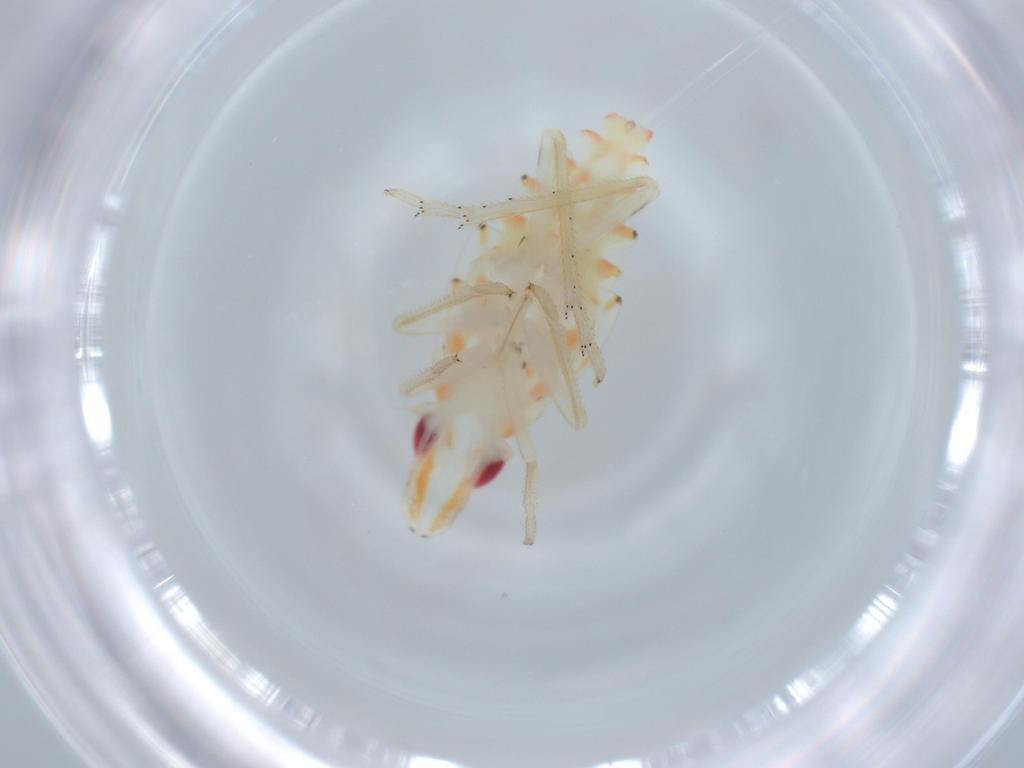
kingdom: Animalia
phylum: Arthropoda
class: Insecta
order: Hemiptera
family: Tropiduchidae
